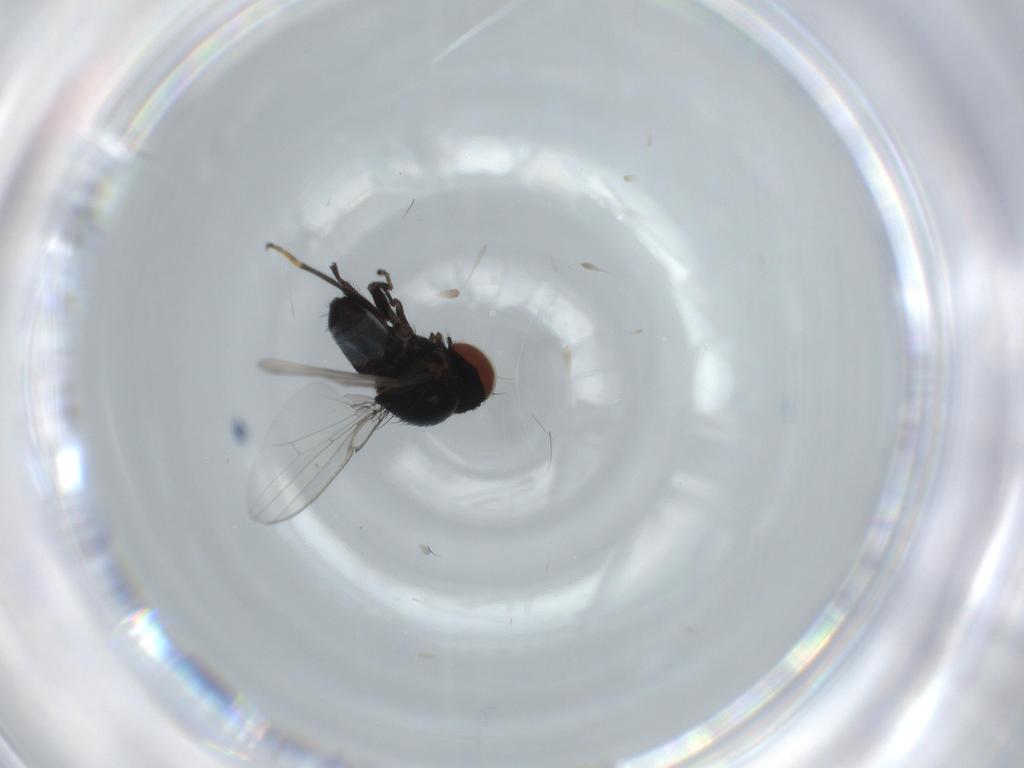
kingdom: Animalia
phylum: Arthropoda
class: Insecta
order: Diptera
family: Milichiidae
